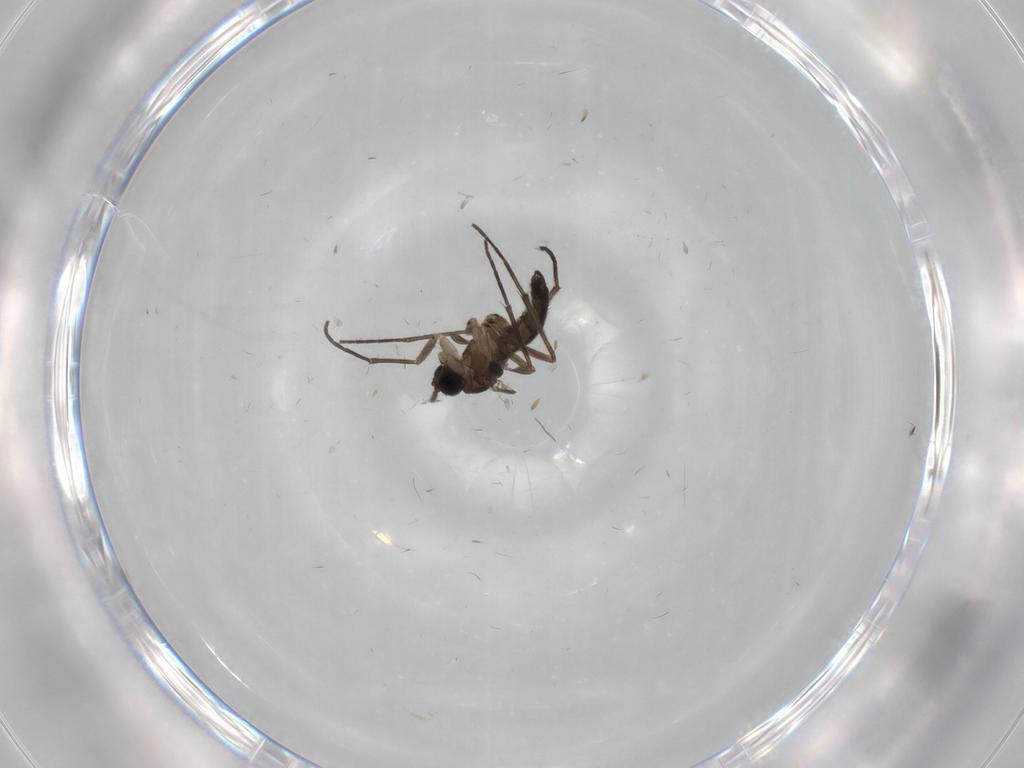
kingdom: Animalia
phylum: Arthropoda
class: Insecta
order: Diptera
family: Sciaridae
